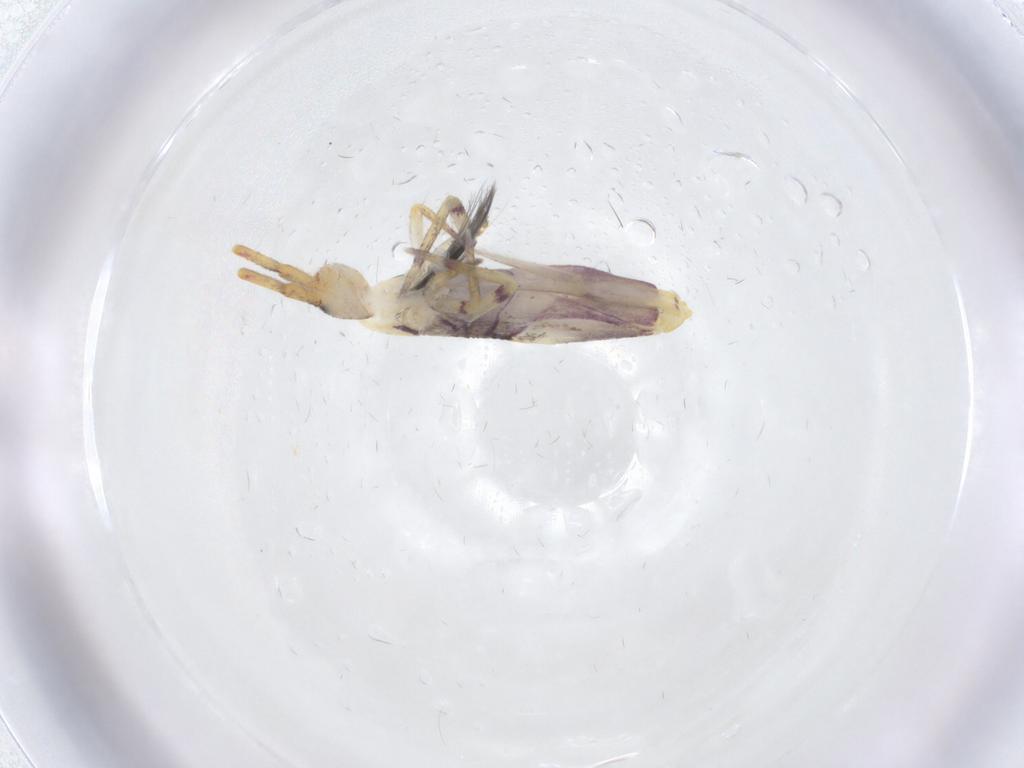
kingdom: Animalia
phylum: Arthropoda
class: Collembola
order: Entomobryomorpha
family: Entomobryidae
